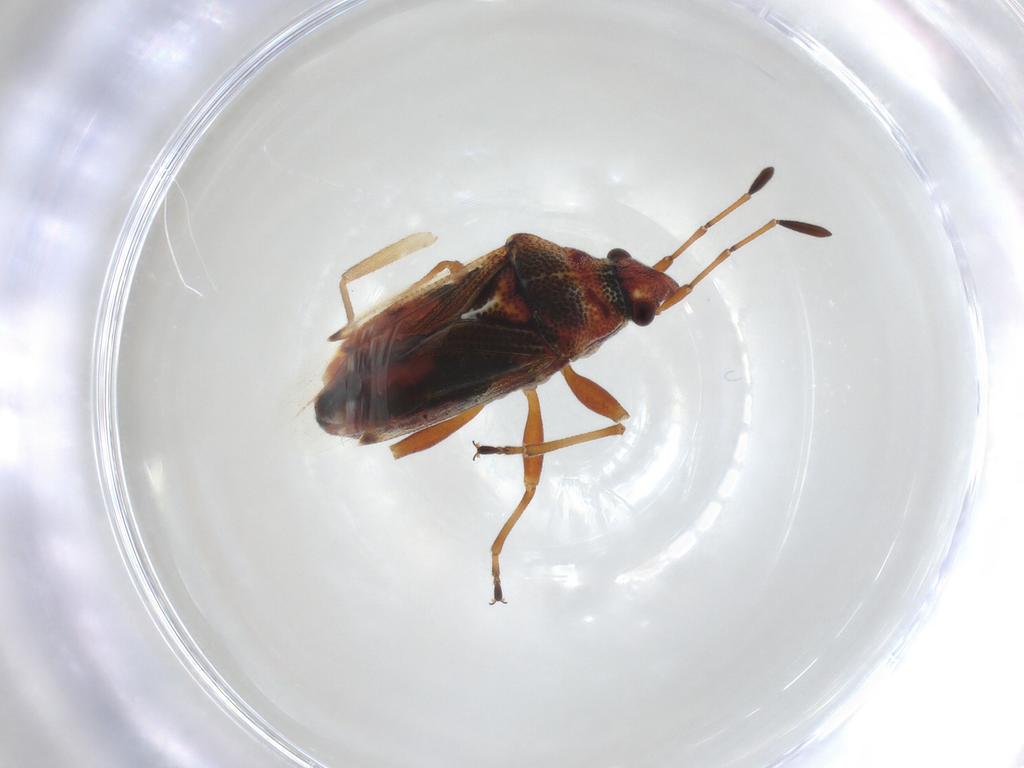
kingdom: Animalia
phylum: Arthropoda
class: Insecta
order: Hemiptera
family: Lygaeidae
